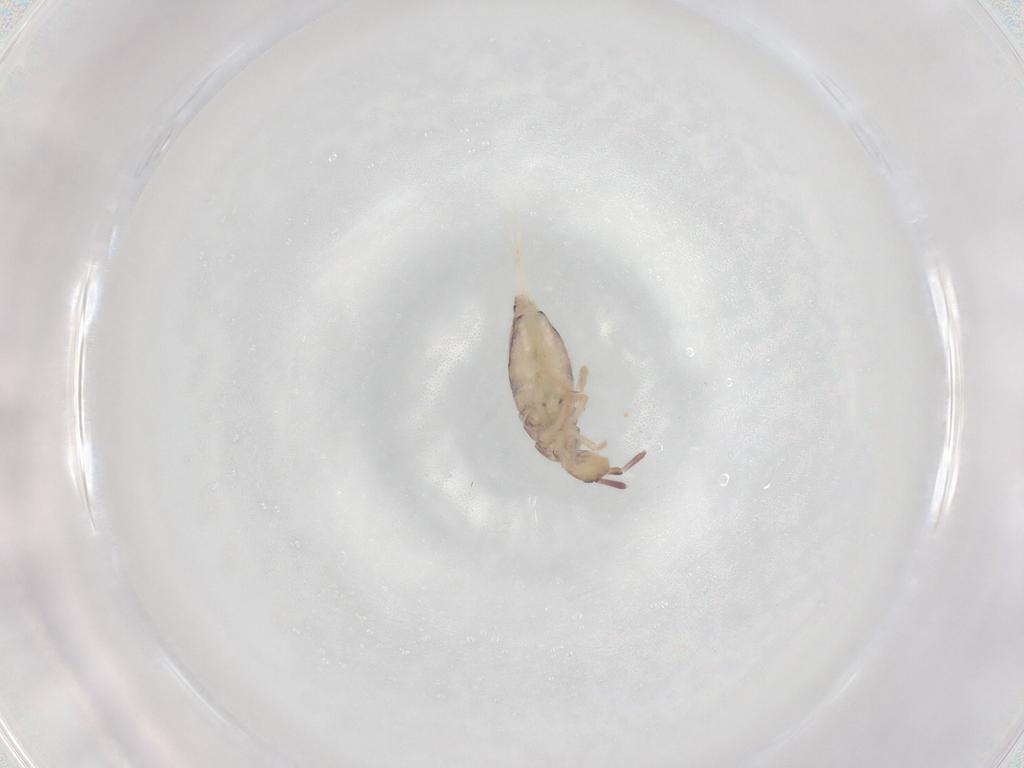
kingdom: Animalia
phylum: Arthropoda
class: Collembola
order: Entomobryomorpha
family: Entomobryidae
